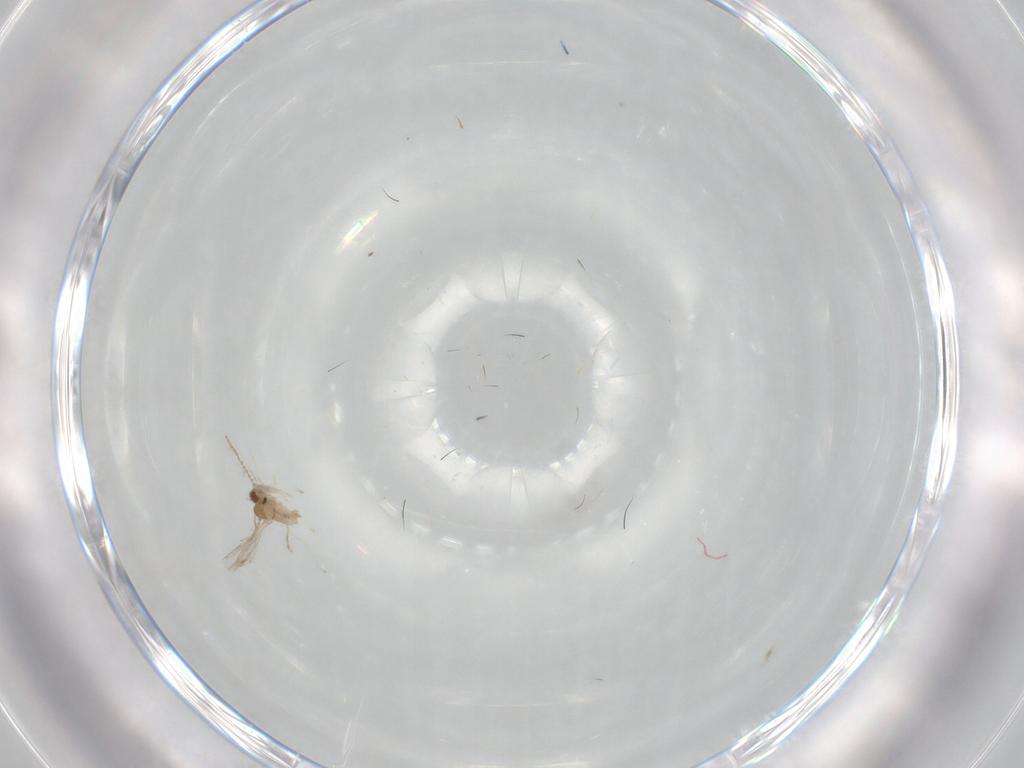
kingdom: Animalia
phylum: Arthropoda
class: Insecta
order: Diptera
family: Cecidomyiidae
